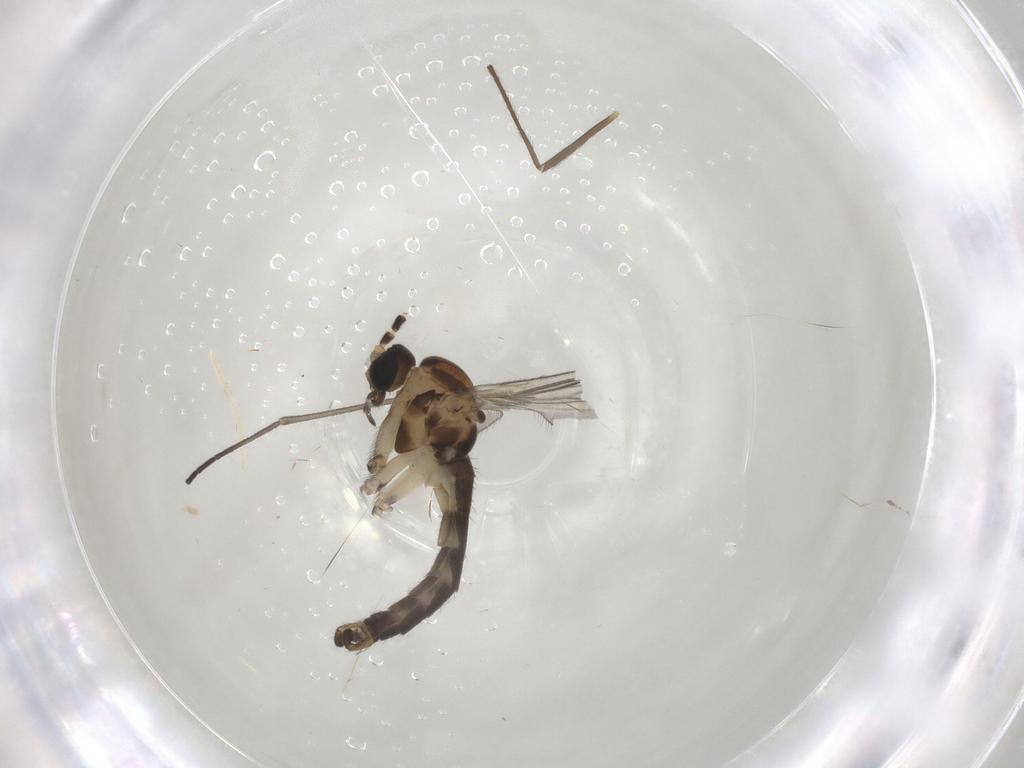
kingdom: Animalia
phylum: Arthropoda
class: Insecta
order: Diptera
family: Sciaridae
